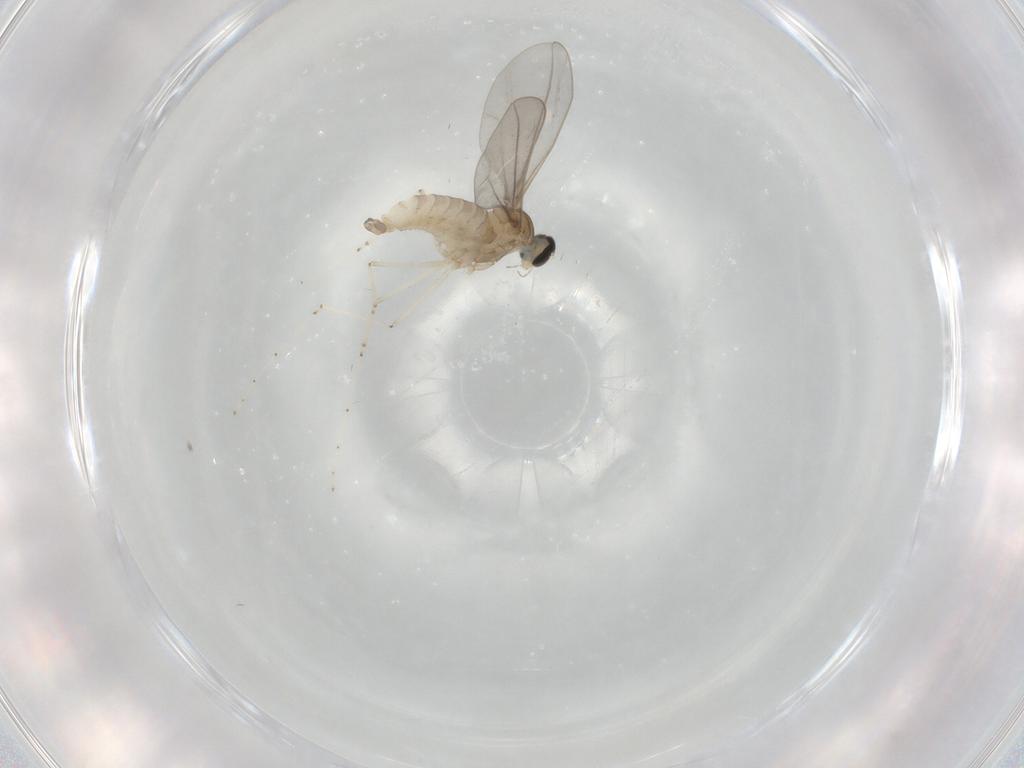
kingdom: Animalia
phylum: Arthropoda
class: Insecta
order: Diptera
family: Cecidomyiidae
